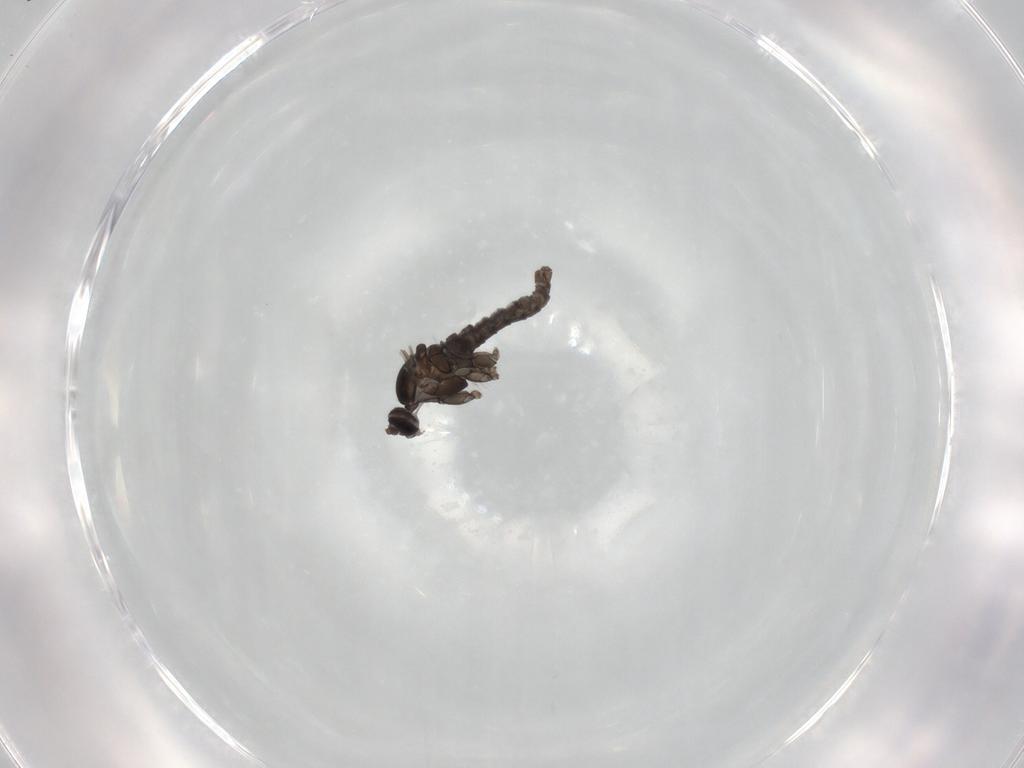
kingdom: Animalia
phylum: Arthropoda
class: Insecta
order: Diptera
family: Cecidomyiidae
